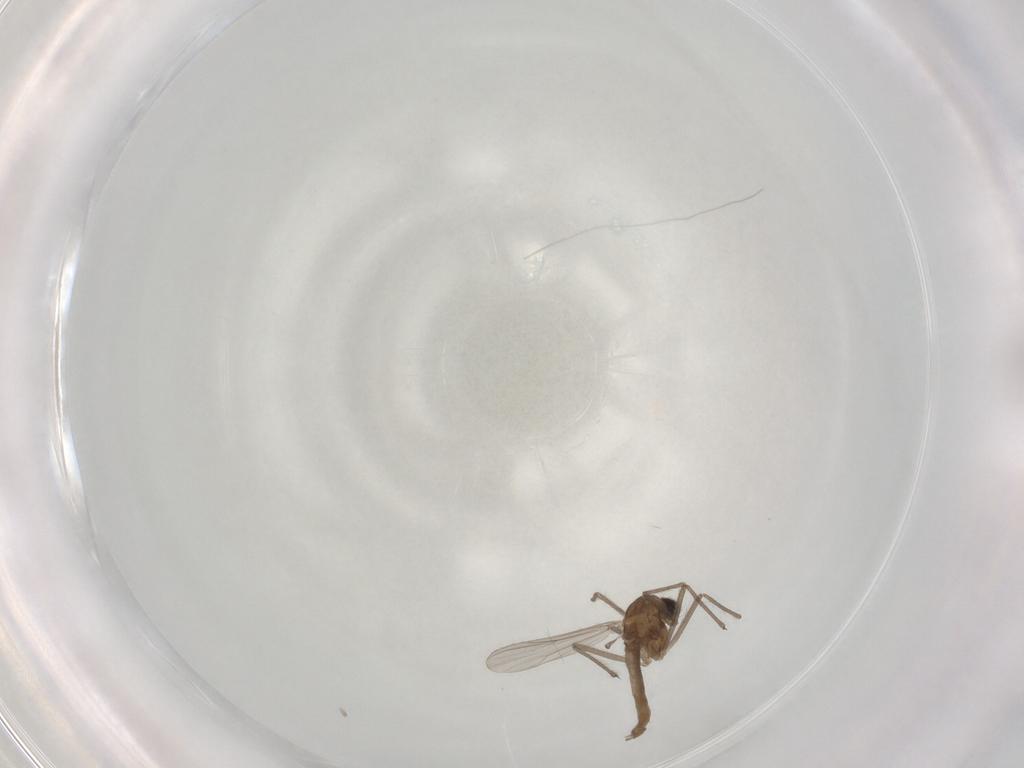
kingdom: Animalia
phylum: Arthropoda
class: Insecta
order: Diptera
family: Chironomidae
